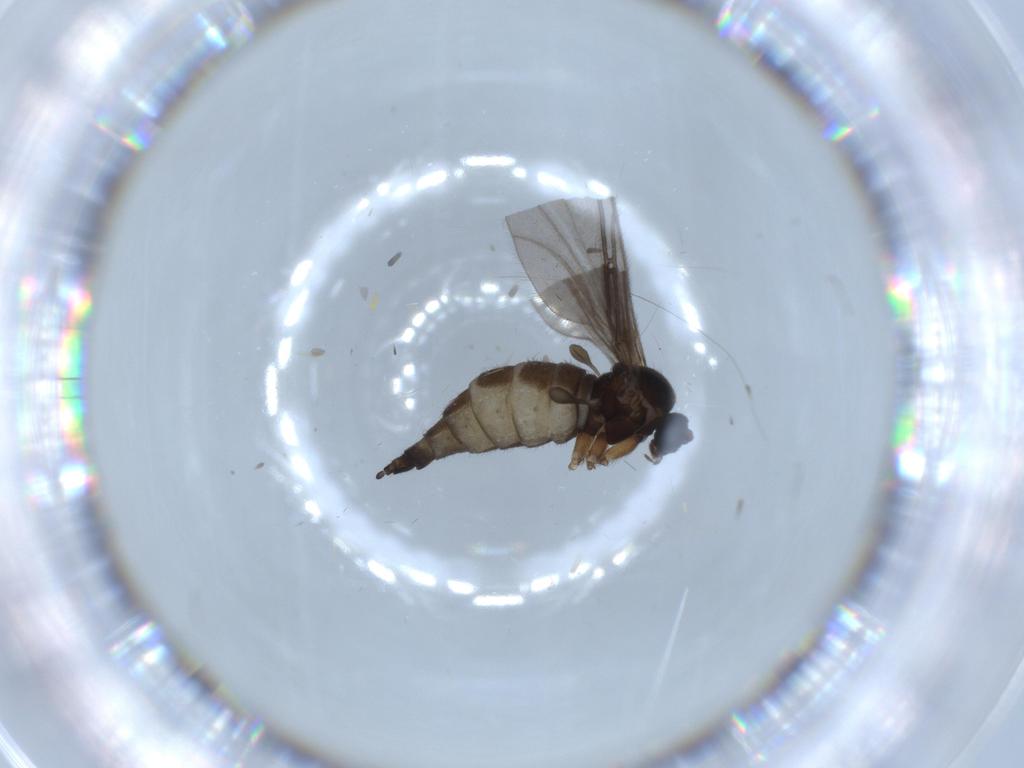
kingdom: Animalia
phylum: Arthropoda
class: Insecta
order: Diptera
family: Sciaridae
